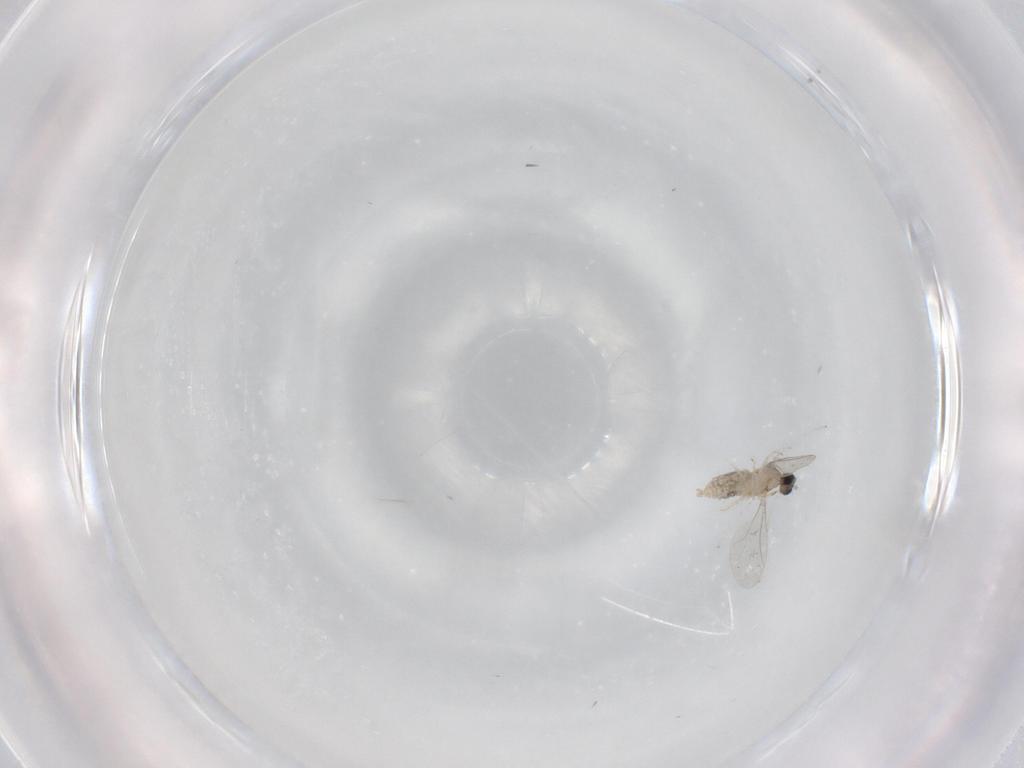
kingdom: Animalia
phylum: Arthropoda
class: Insecta
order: Diptera
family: Cecidomyiidae
